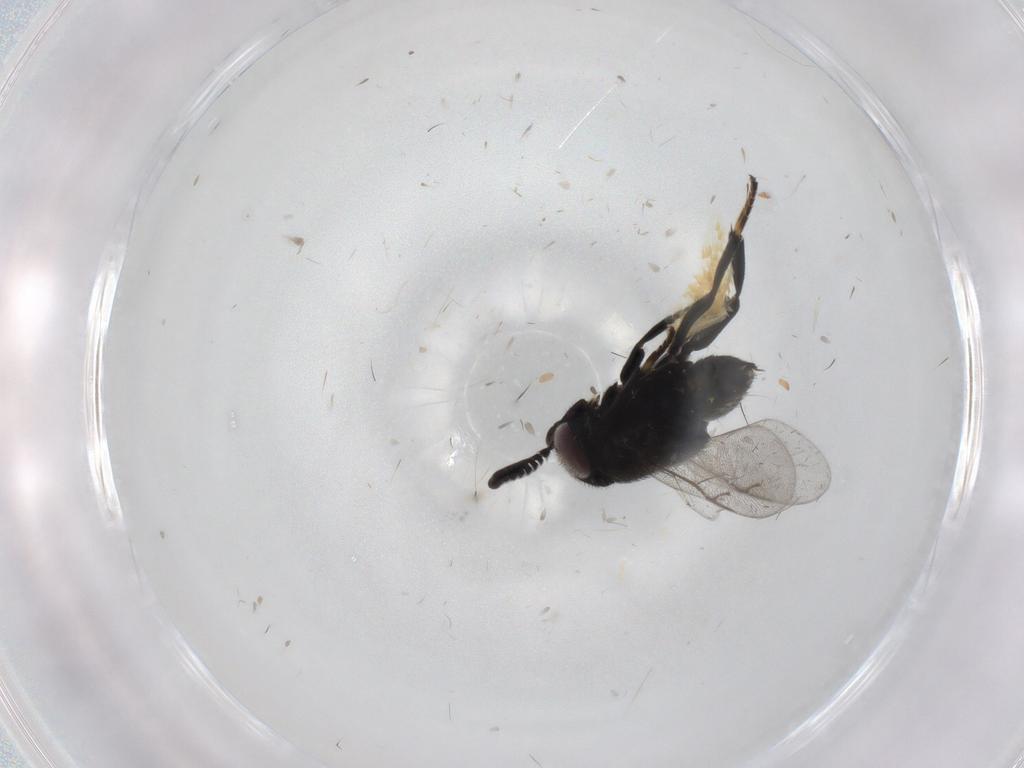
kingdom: Animalia
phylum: Arthropoda
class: Insecta
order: Hymenoptera
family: Encyrtidae
